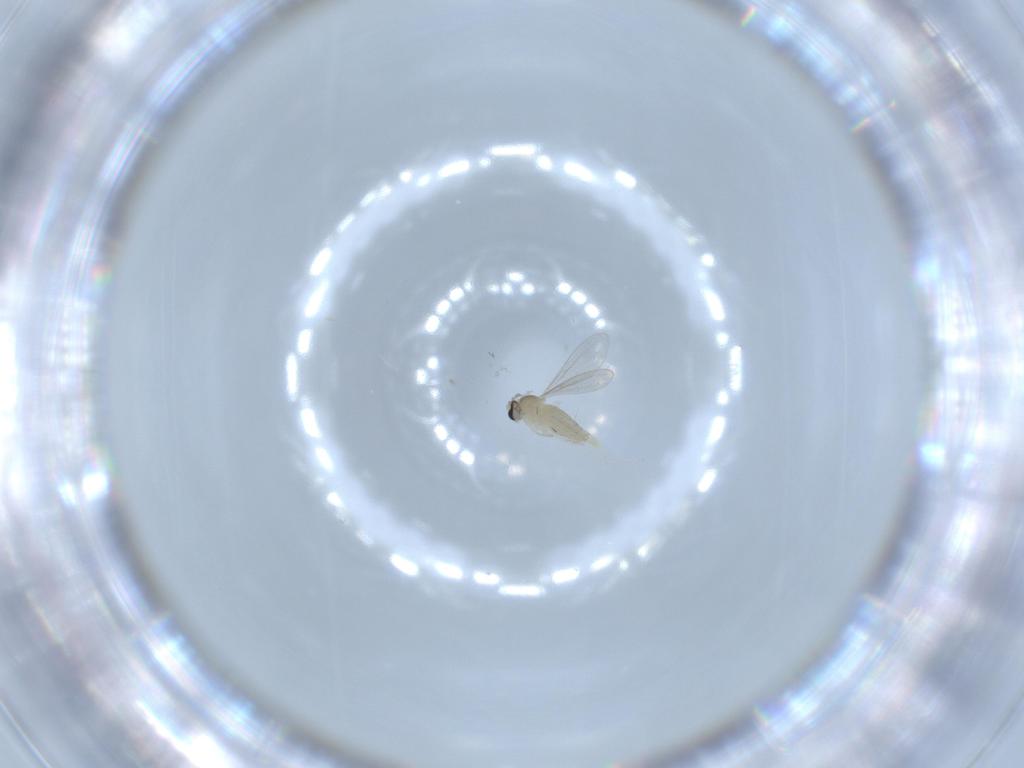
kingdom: Animalia
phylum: Arthropoda
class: Insecta
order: Diptera
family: Cecidomyiidae
